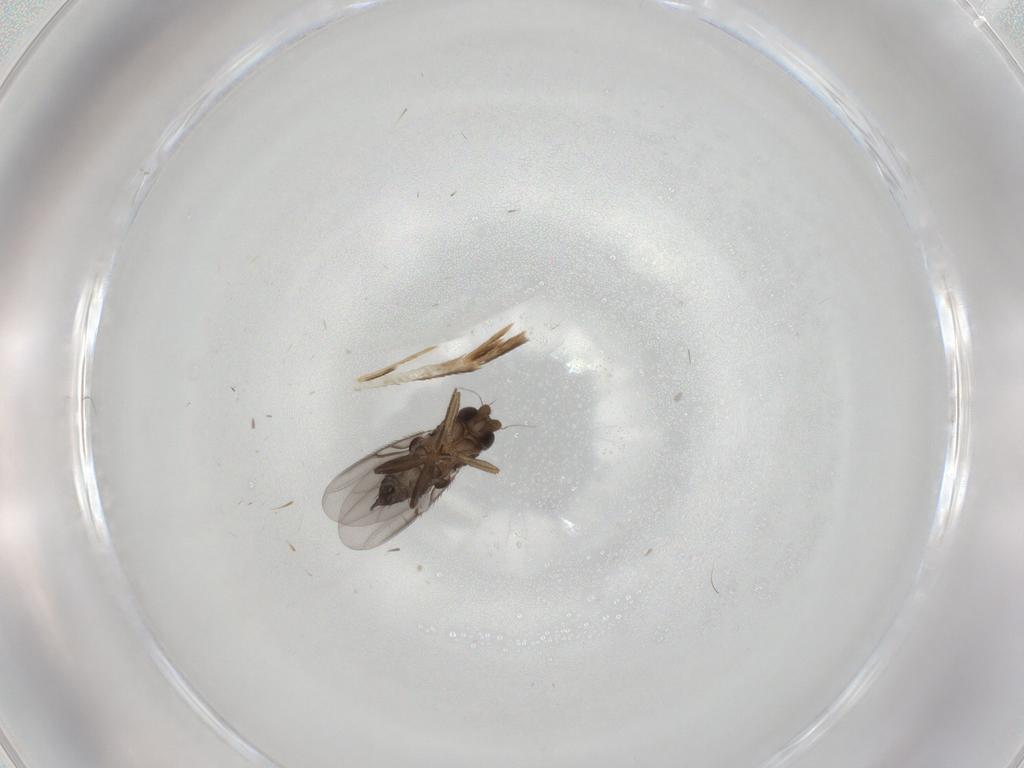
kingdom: Animalia
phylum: Arthropoda
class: Insecta
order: Diptera
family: Phoridae
